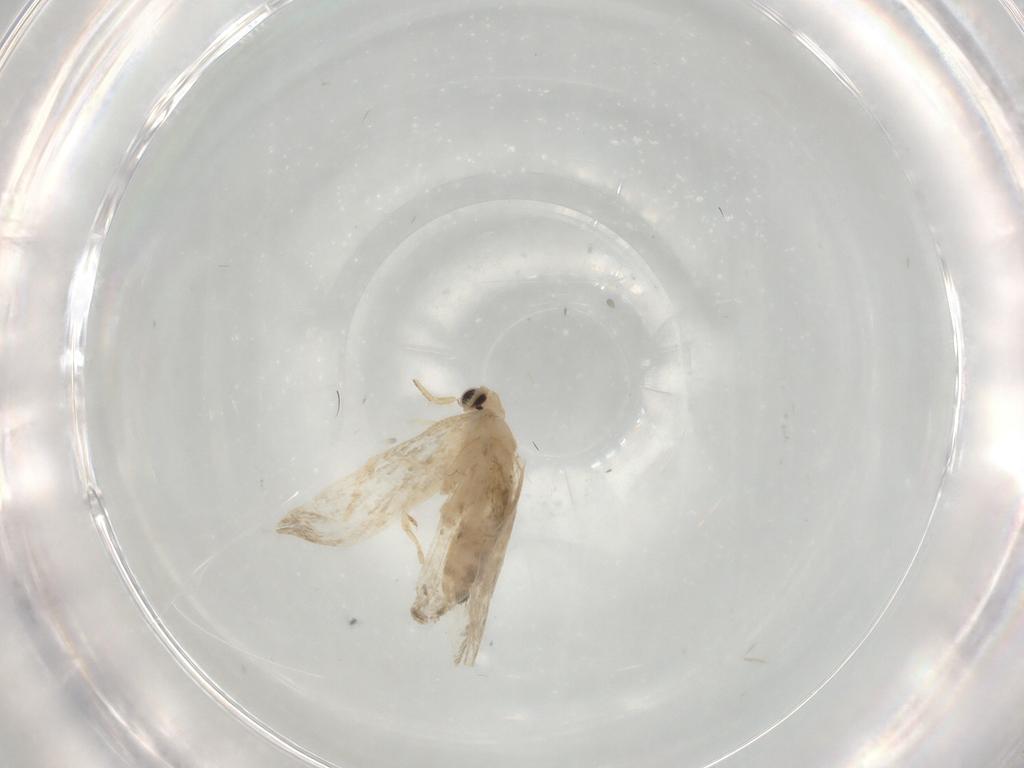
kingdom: Animalia
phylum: Arthropoda
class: Insecta
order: Lepidoptera
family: Psychidae
